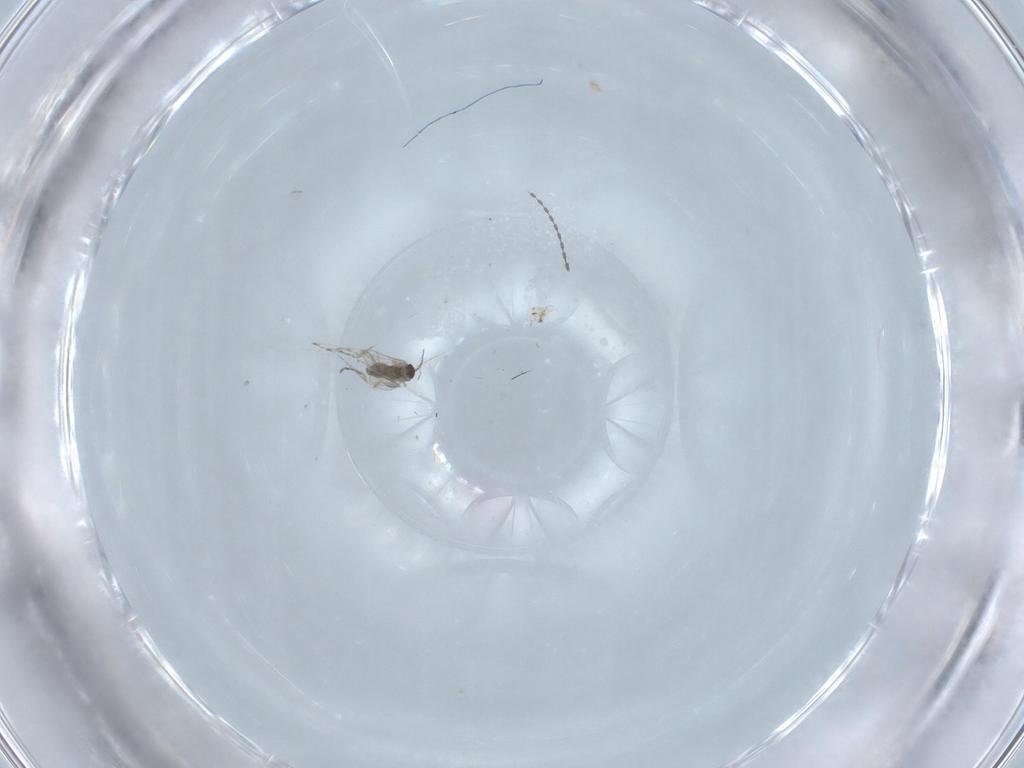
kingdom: Animalia
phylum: Arthropoda
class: Insecta
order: Diptera
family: Cecidomyiidae
